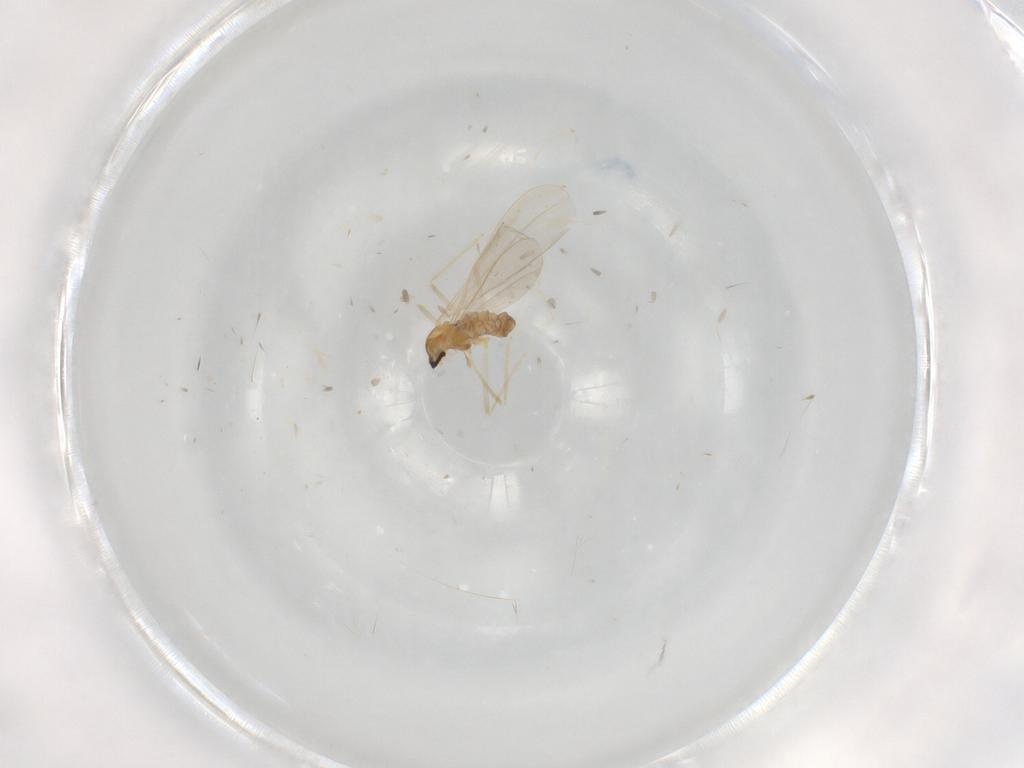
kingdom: Animalia
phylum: Arthropoda
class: Insecta
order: Diptera
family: Cecidomyiidae
